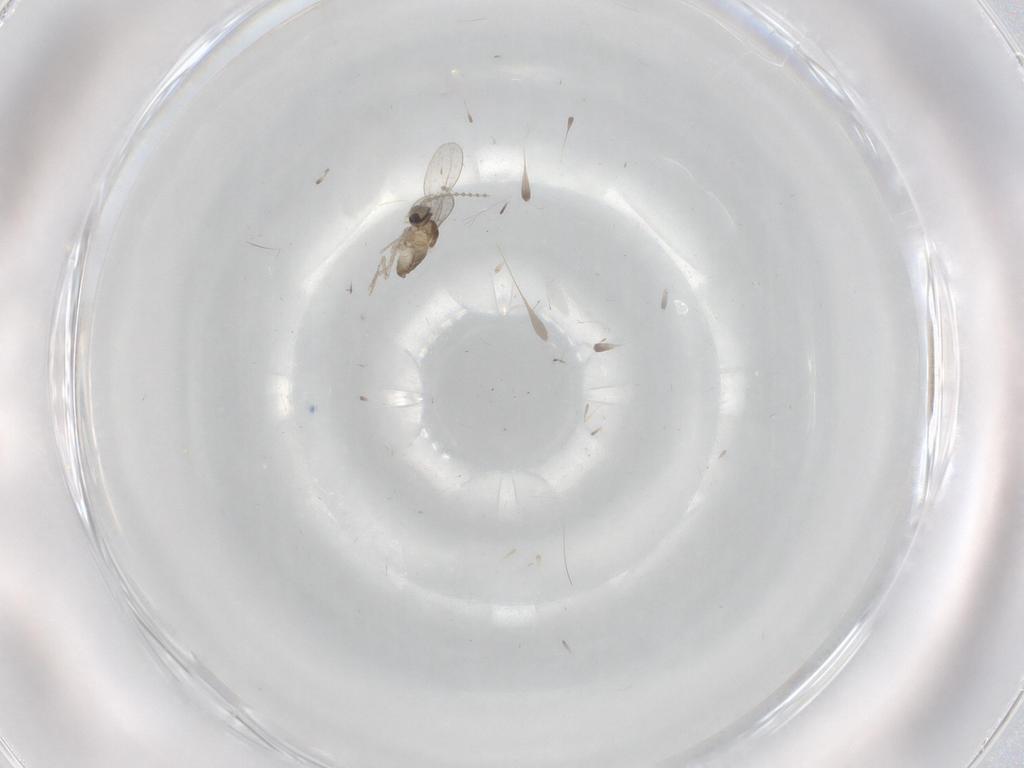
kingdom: Animalia
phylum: Arthropoda
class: Insecta
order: Diptera
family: Cecidomyiidae
